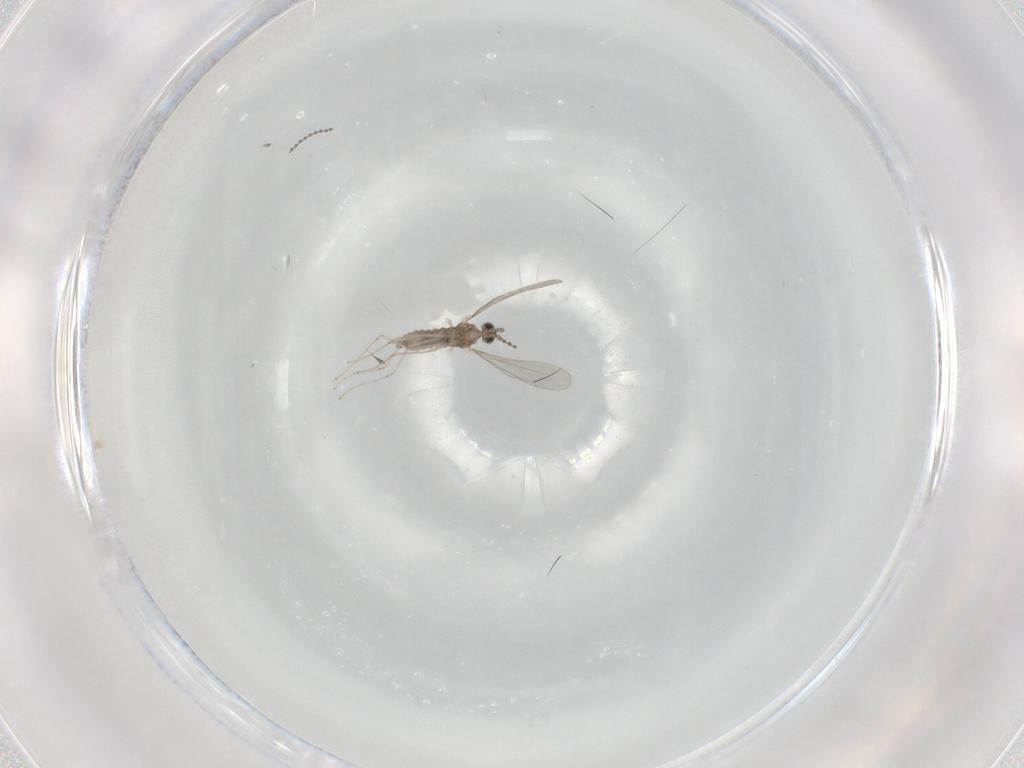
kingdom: Animalia
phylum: Arthropoda
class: Insecta
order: Diptera
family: Cecidomyiidae
